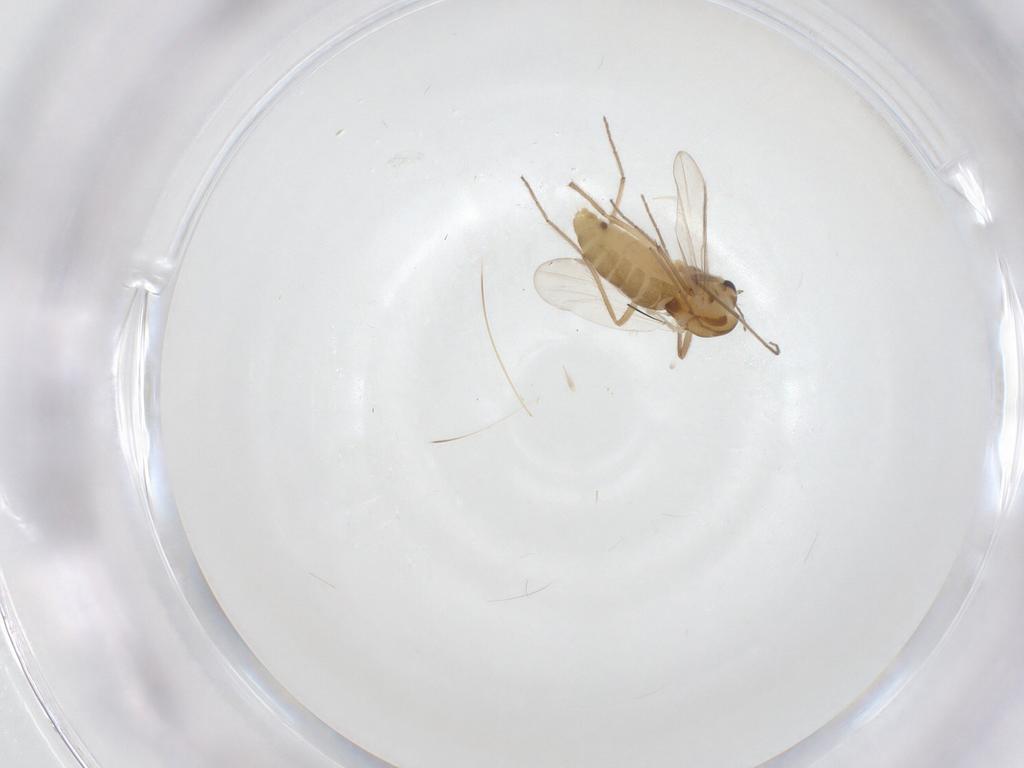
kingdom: Animalia
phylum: Arthropoda
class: Insecta
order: Diptera
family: Chironomidae
